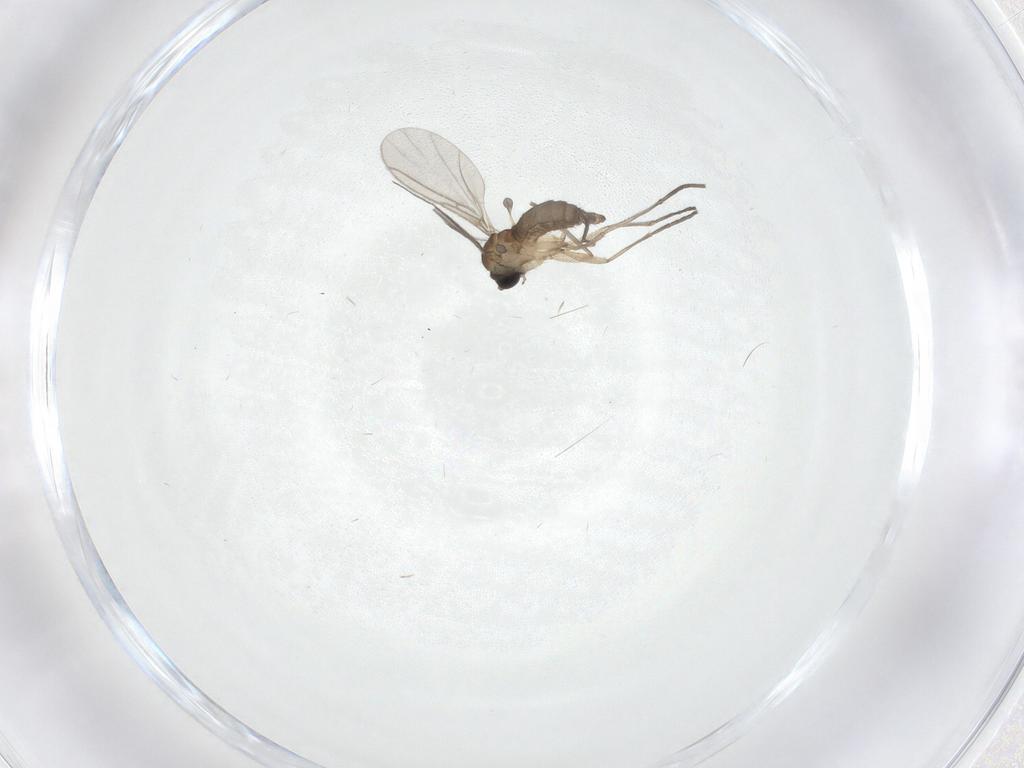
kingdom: Animalia
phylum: Arthropoda
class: Insecta
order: Diptera
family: Sciaridae
